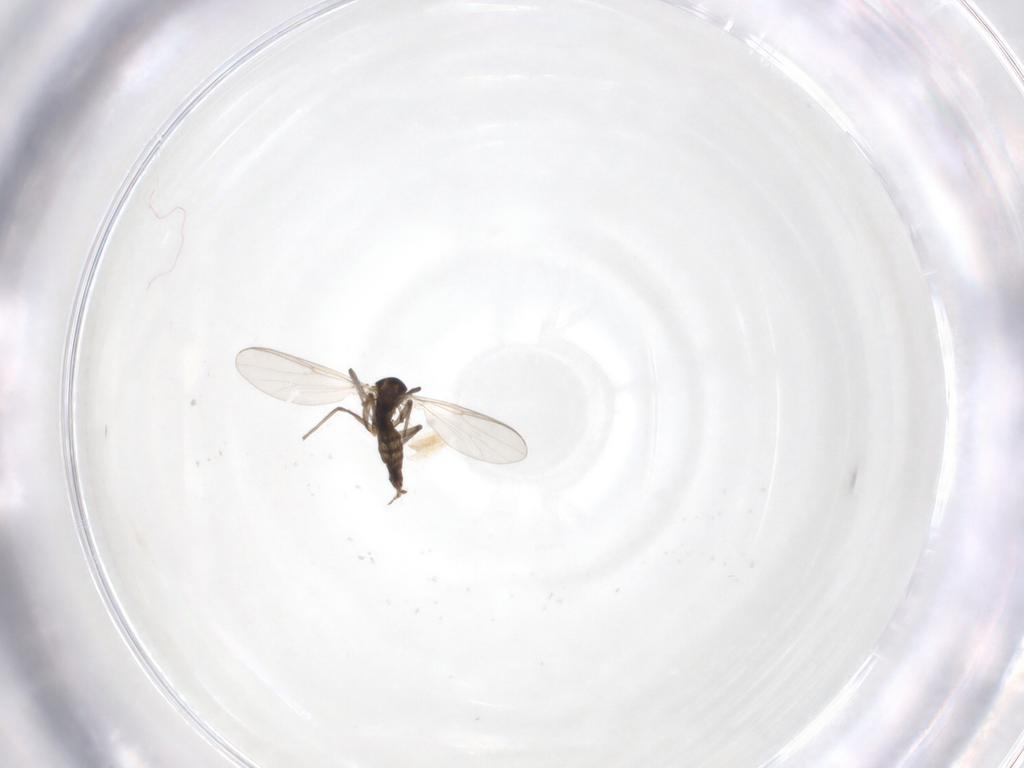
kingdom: Animalia
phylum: Arthropoda
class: Insecta
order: Diptera
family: Chironomidae
